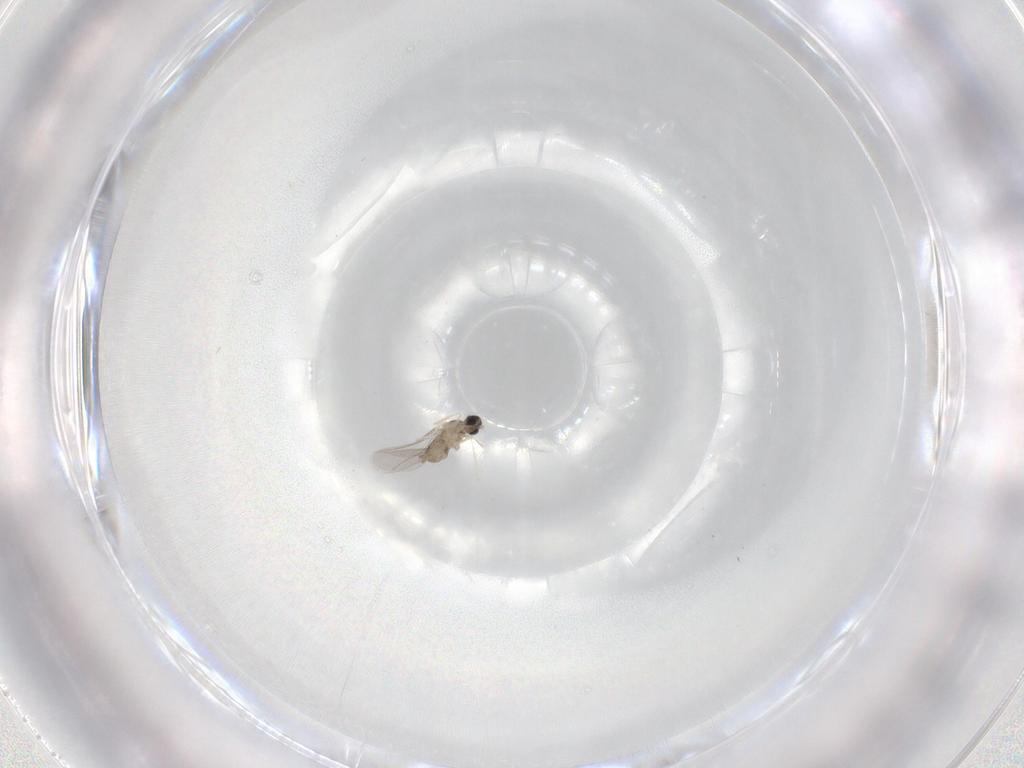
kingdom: Animalia
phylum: Arthropoda
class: Insecta
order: Diptera
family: Cecidomyiidae
